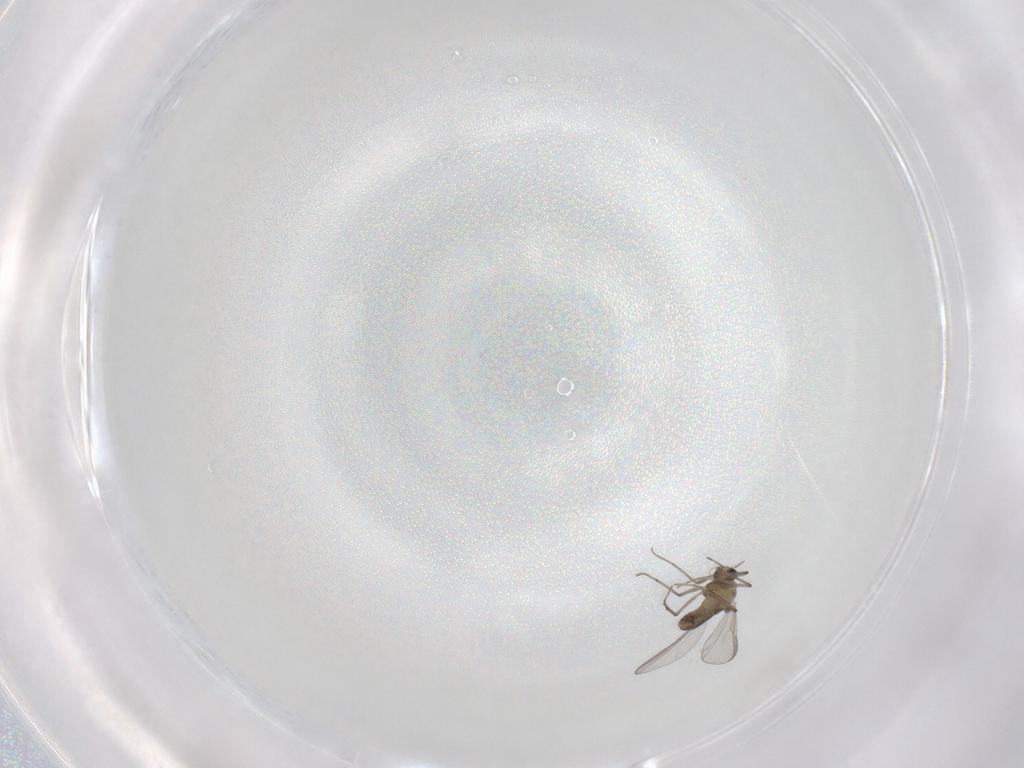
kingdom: Animalia
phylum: Arthropoda
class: Insecta
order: Diptera
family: Chironomidae
